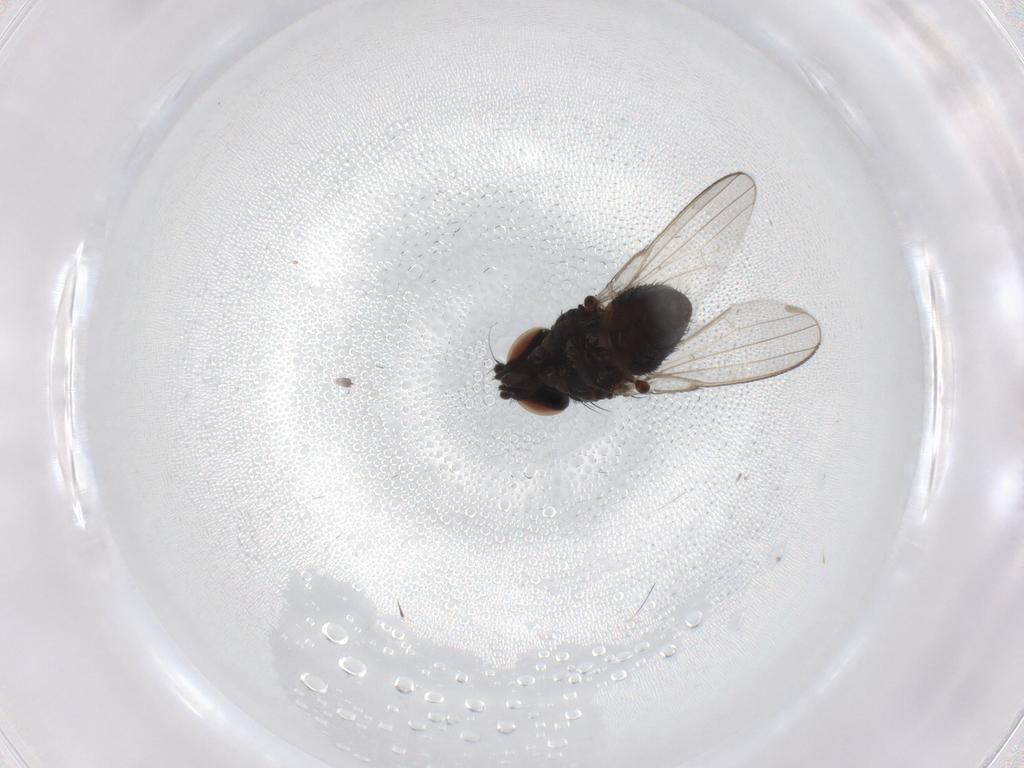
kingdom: Animalia
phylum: Arthropoda
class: Insecta
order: Diptera
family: Milichiidae
